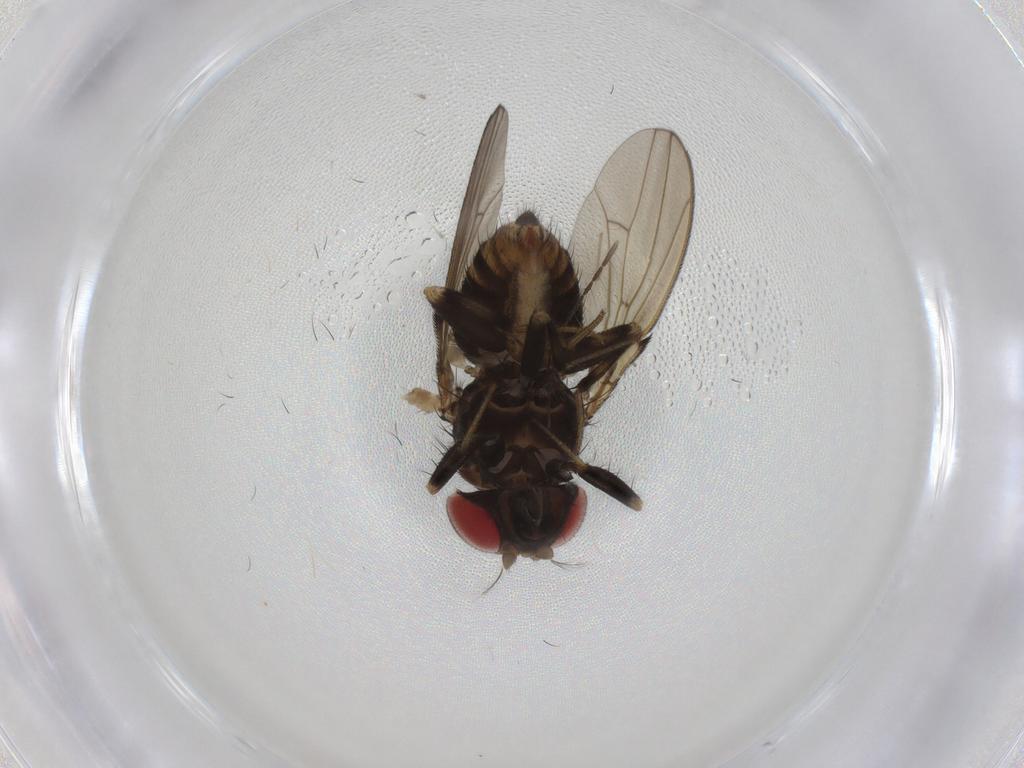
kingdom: Animalia
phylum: Arthropoda
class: Insecta
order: Diptera
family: Drosophilidae
